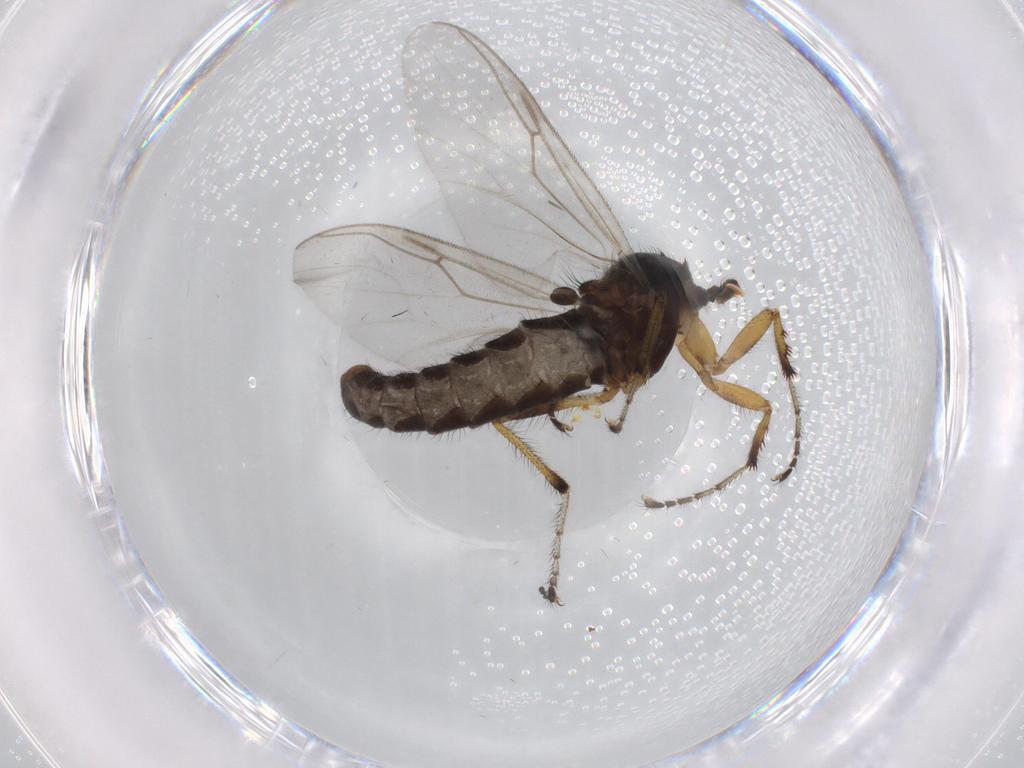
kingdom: Animalia
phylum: Arthropoda
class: Insecta
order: Diptera
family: Bibionidae
